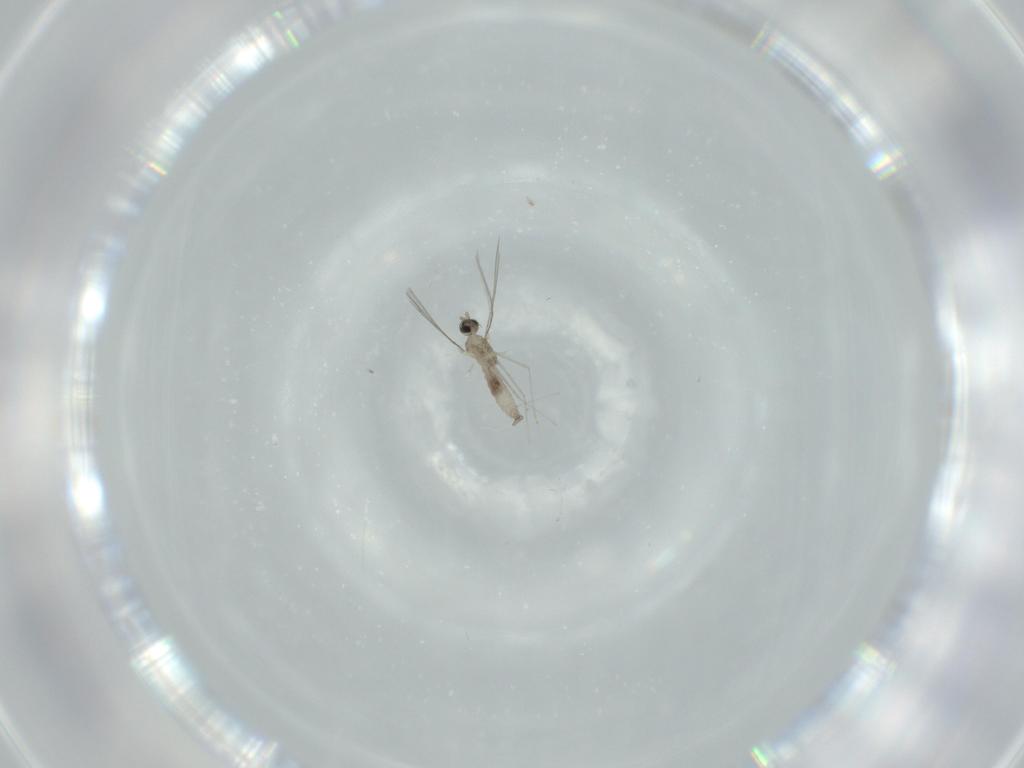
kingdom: Animalia
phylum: Arthropoda
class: Insecta
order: Diptera
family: Cecidomyiidae
